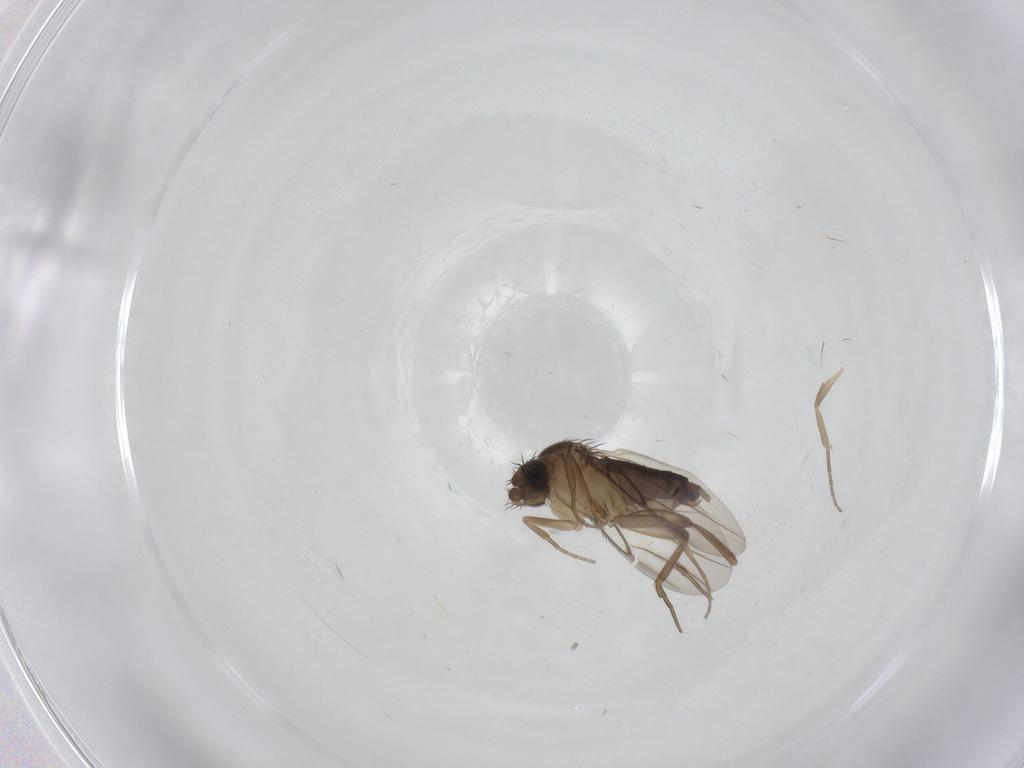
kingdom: Animalia
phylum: Arthropoda
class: Insecta
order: Diptera
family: Phoridae
